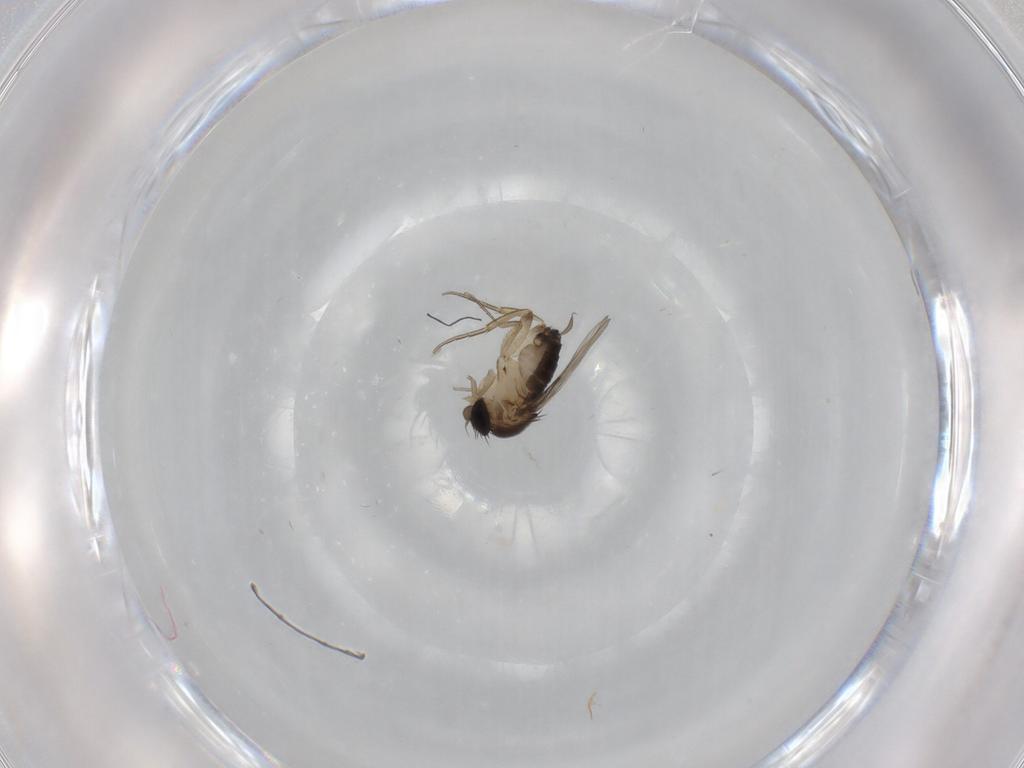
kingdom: Animalia
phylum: Arthropoda
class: Insecta
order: Diptera
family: Phoridae
